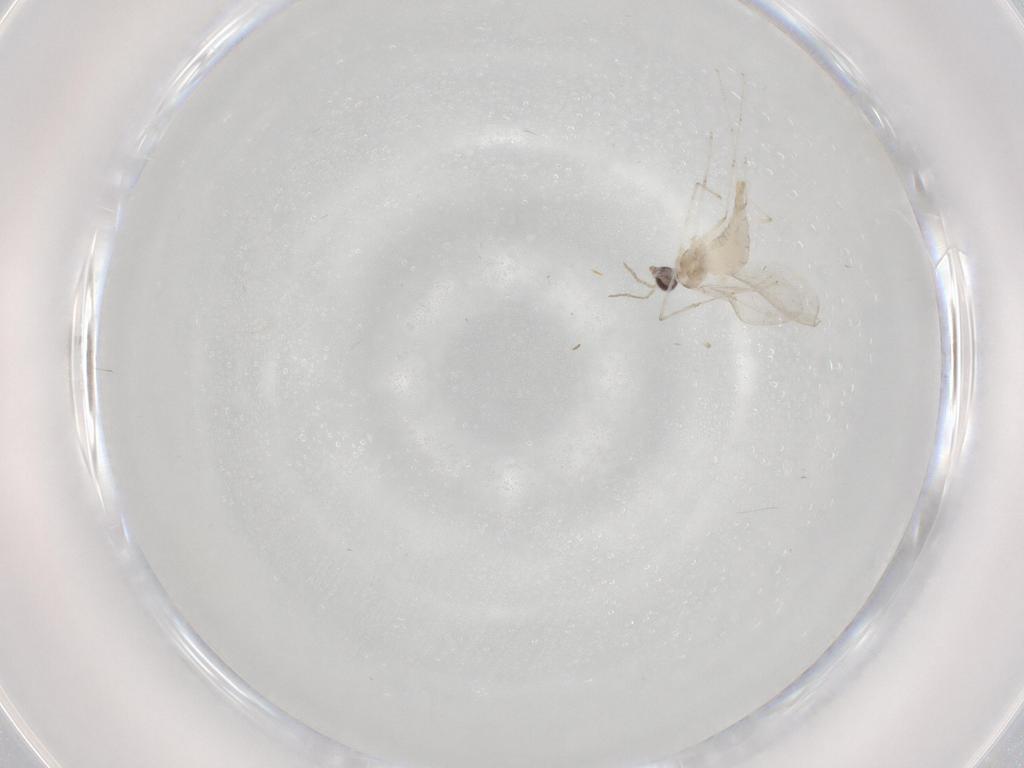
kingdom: Animalia
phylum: Arthropoda
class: Insecta
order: Diptera
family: Cecidomyiidae
